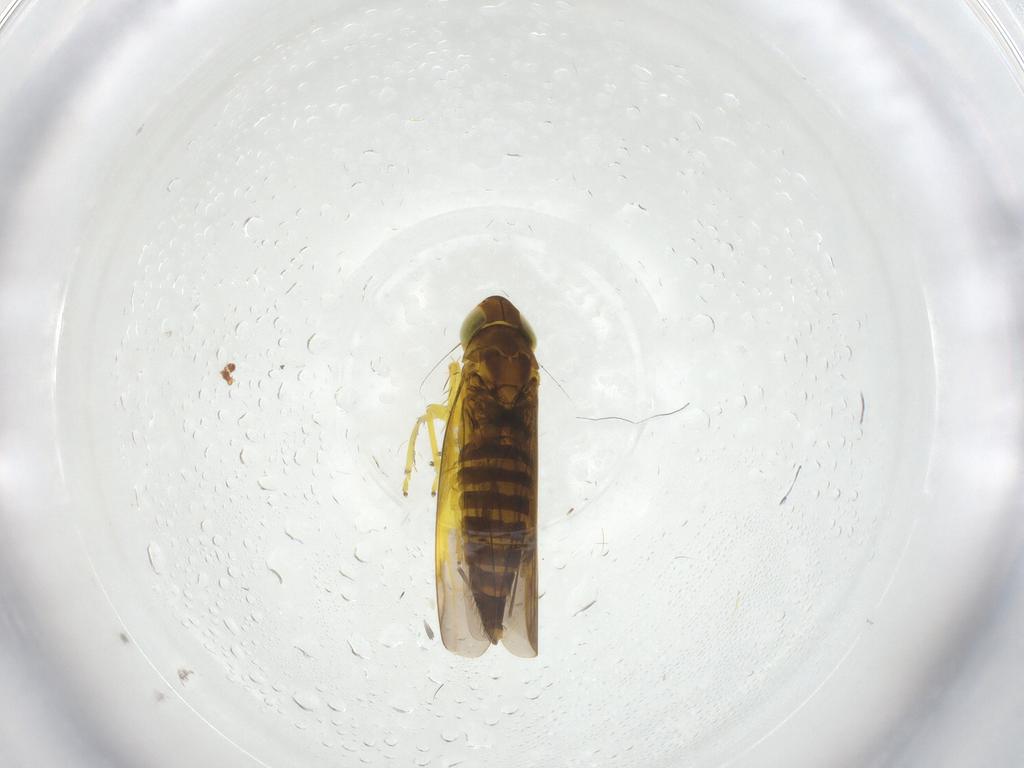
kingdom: Animalia
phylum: Arthropoda
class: Insecta
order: Hemiptera
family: Cicadellidae
